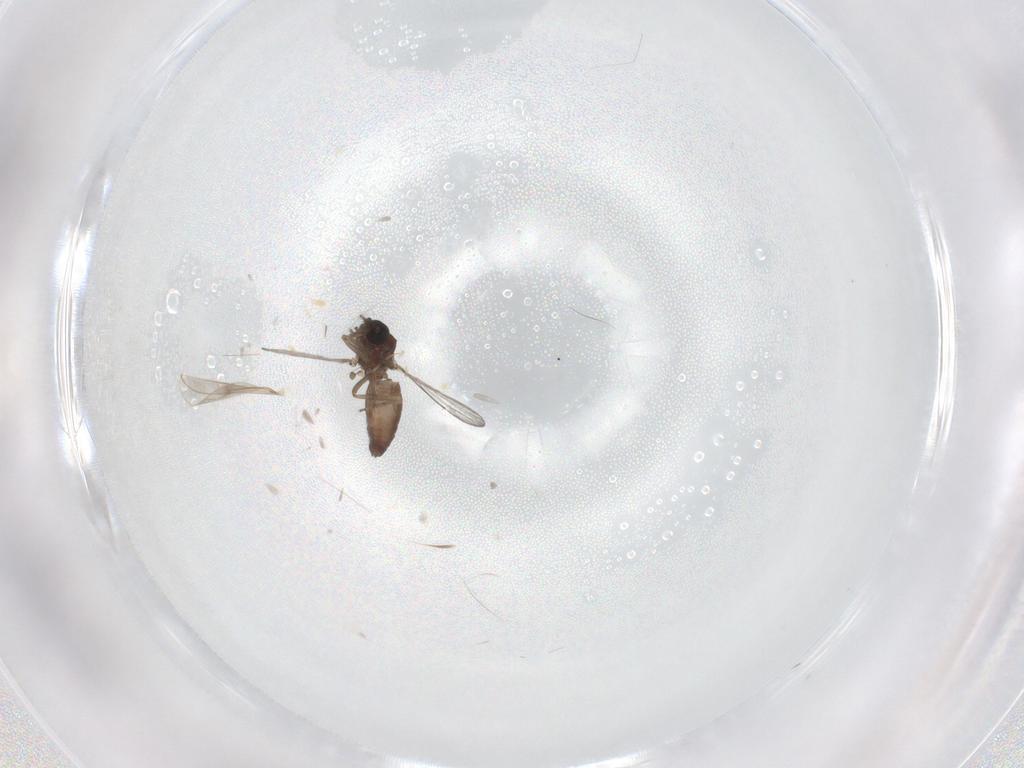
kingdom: Animalia
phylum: Arthropoda
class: Insecta
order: Diptera
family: Ceratopogonidae
